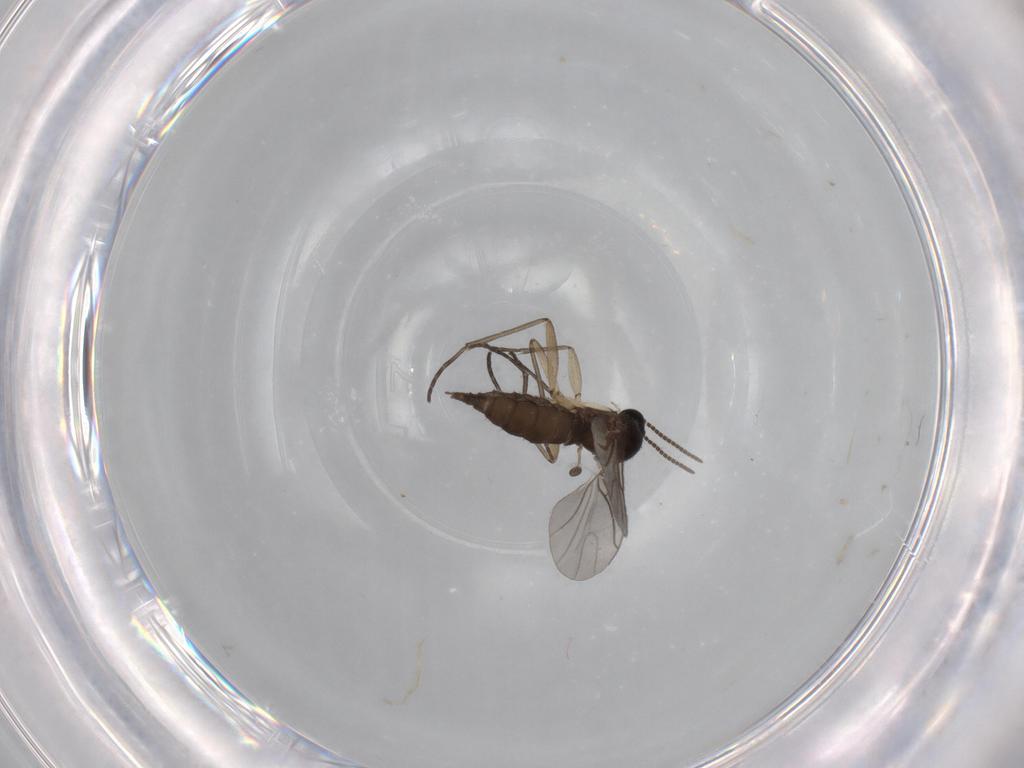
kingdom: Animalia
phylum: Arthropoda
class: Insecta
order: Diptera
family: Sciaridae
